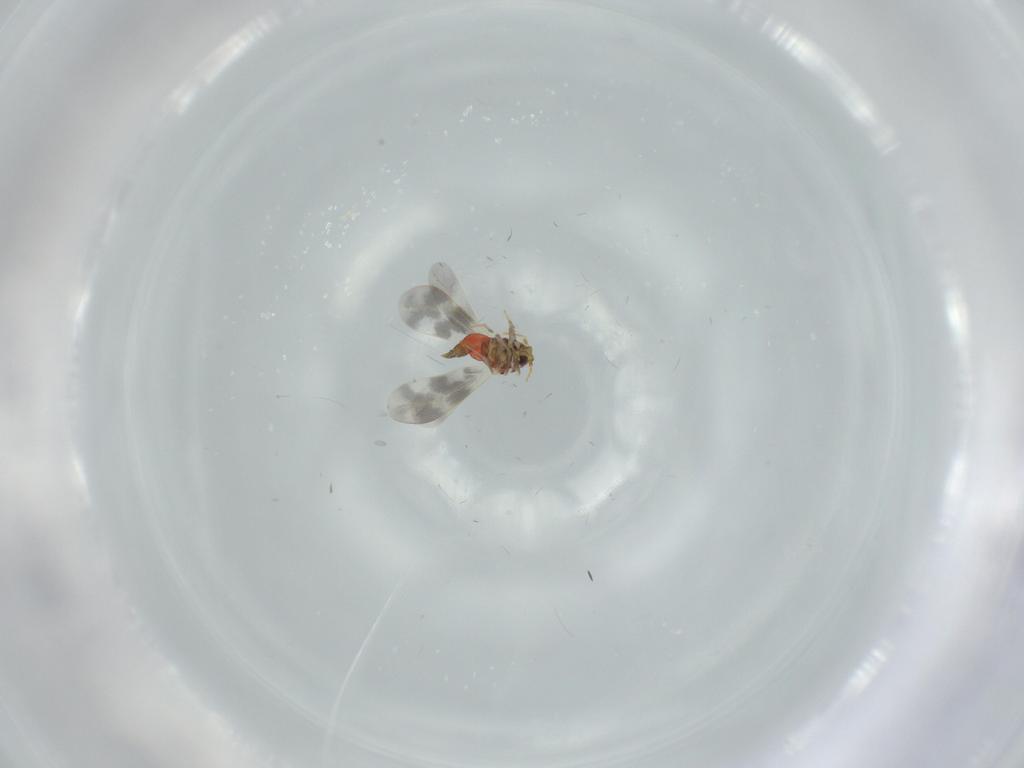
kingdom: Animalia
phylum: Arthropoda
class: Insecta
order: Hemiptera
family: Aleyrodidae
